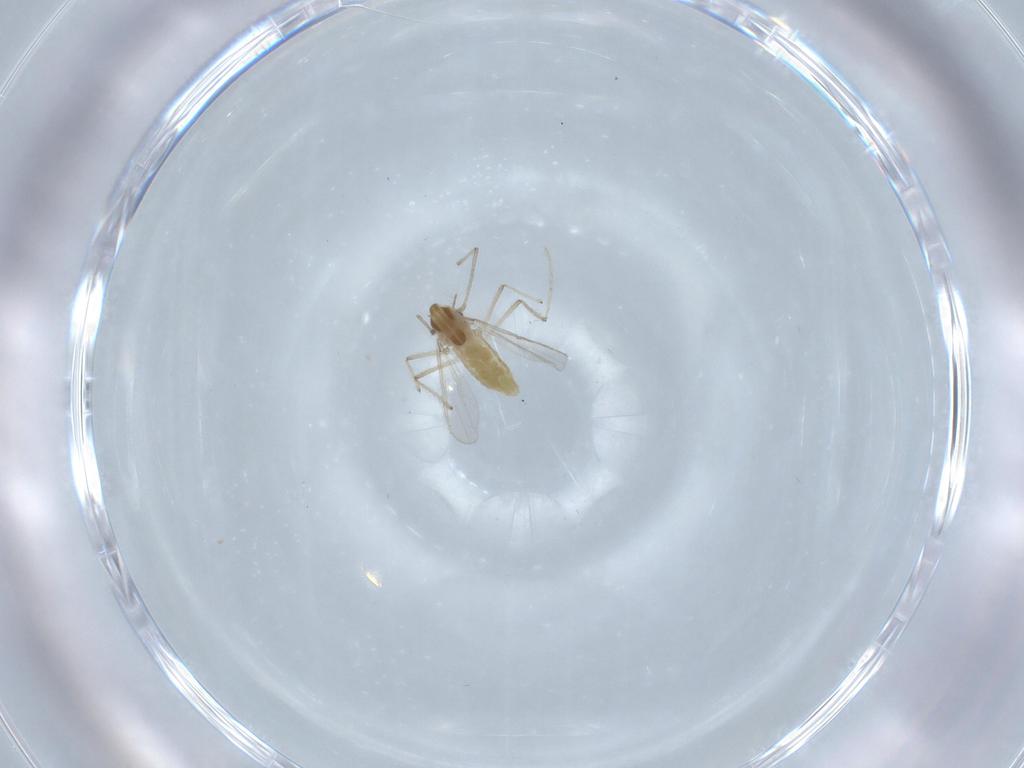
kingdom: Animalia
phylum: Arthropoda
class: Insecta
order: Diptera
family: Chironomidae
